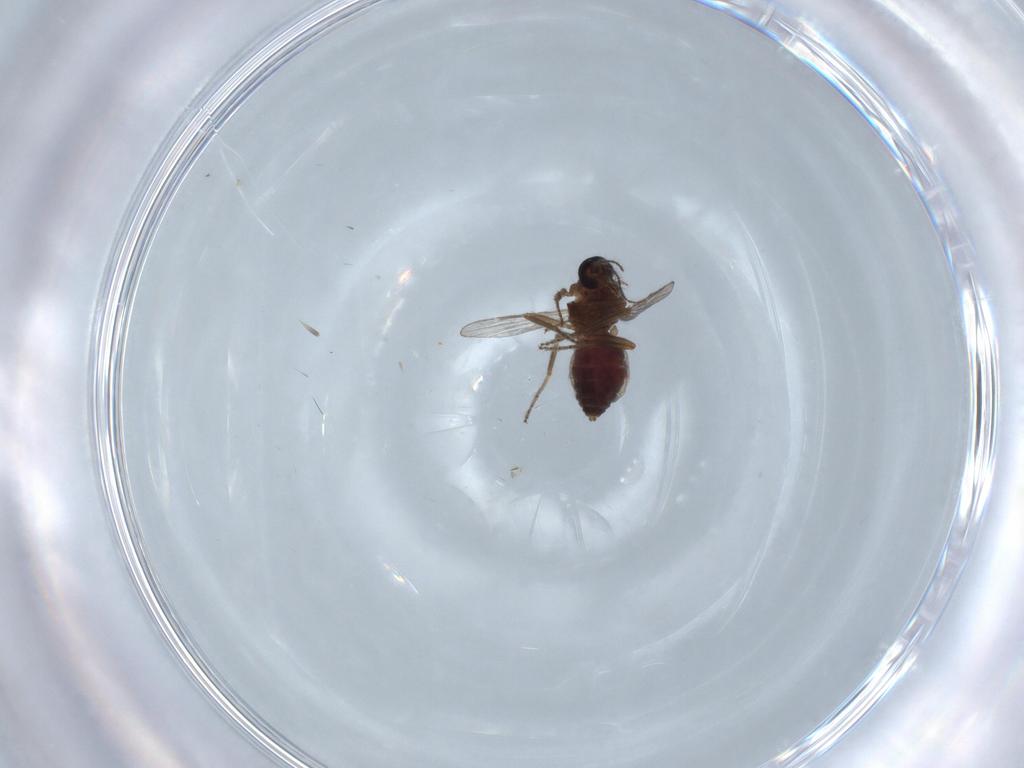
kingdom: Animalia
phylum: Arthropoda
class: Insecta
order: Diptera
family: Ceratopogonidae
